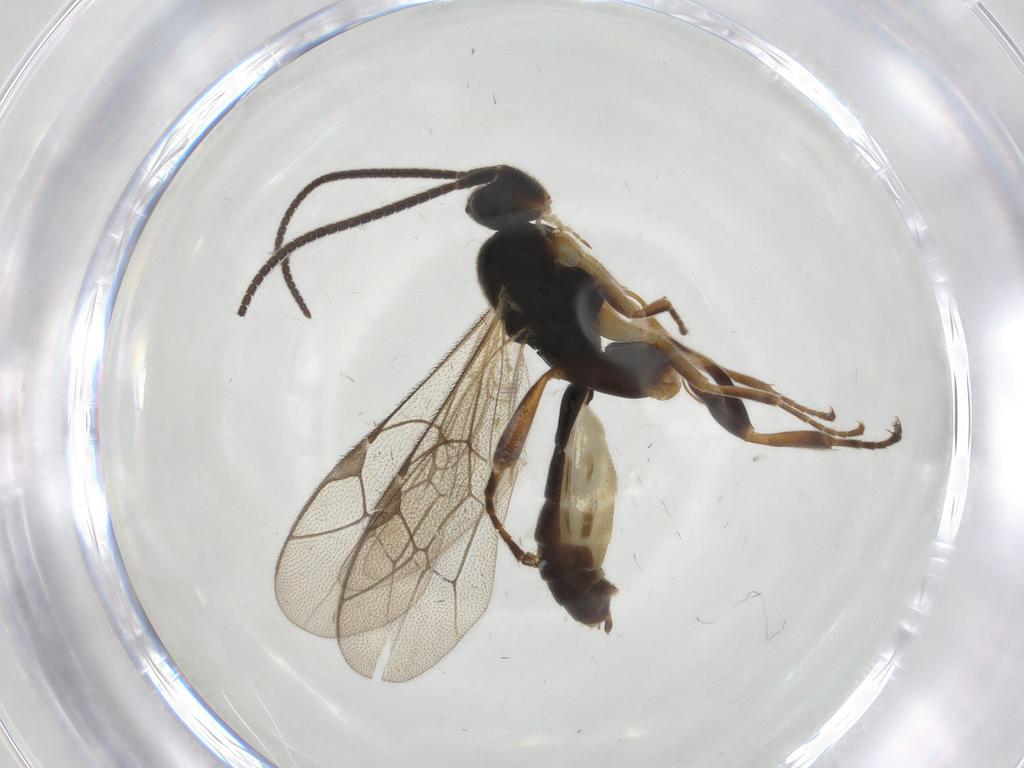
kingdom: Animalia
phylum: Arthropoda
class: Insecta
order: Hymenoptera
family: Ichneumonidae
